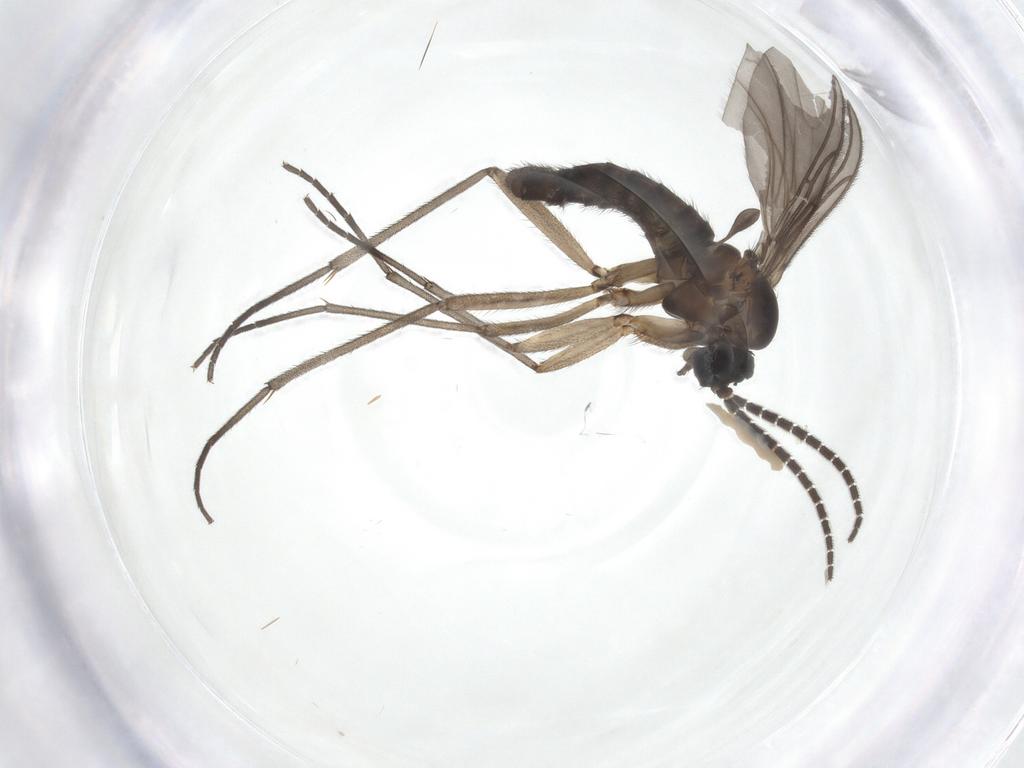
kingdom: Animalia
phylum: Arthropoda
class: Insecta
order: Diptera
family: Sciaridae
